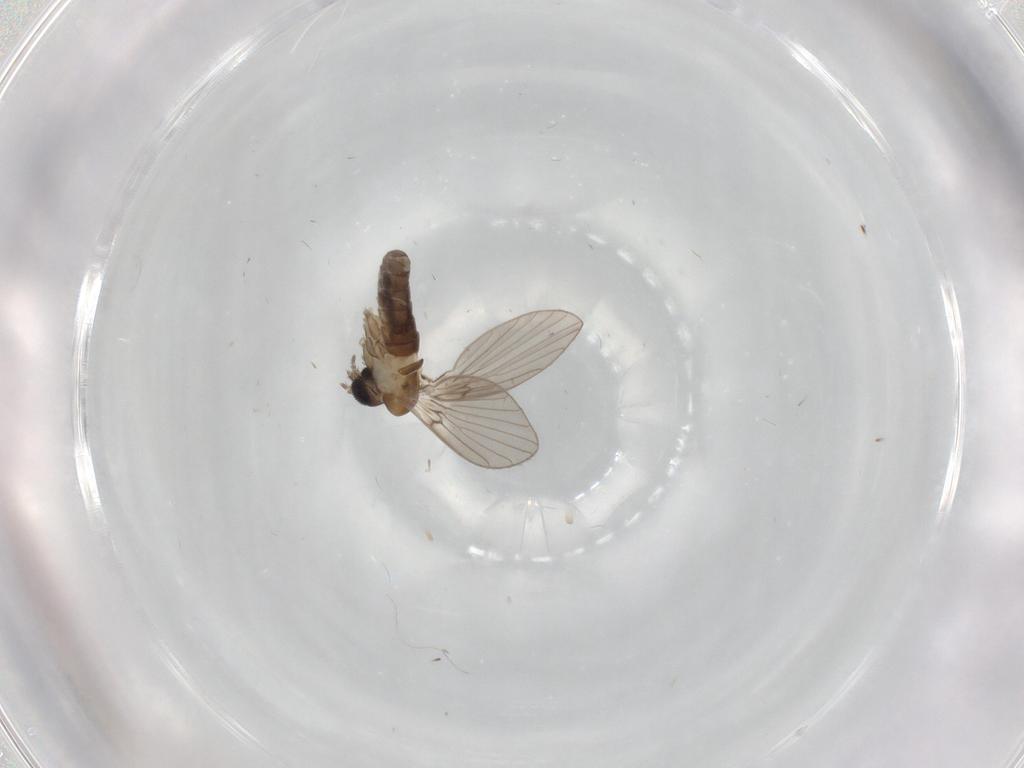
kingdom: Animalia
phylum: Arthropoda
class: Insecta
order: Diptera
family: Psychodidae
